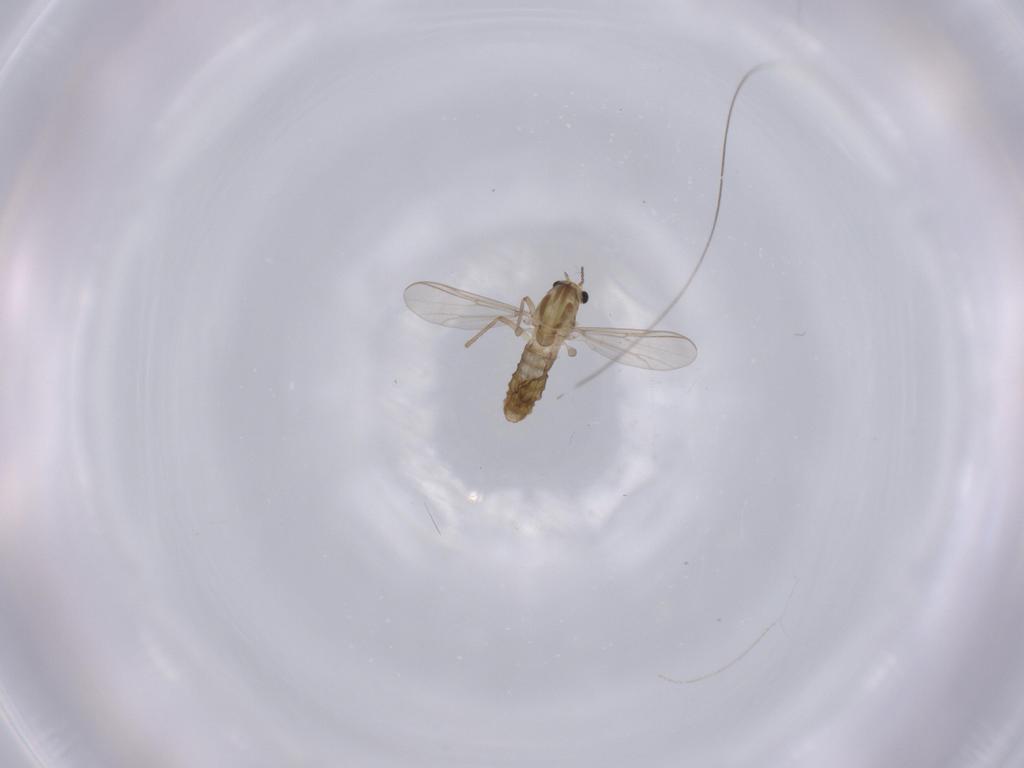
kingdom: Animalia
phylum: Arthropoda
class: Insecta
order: Diptera
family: Chironomidae
